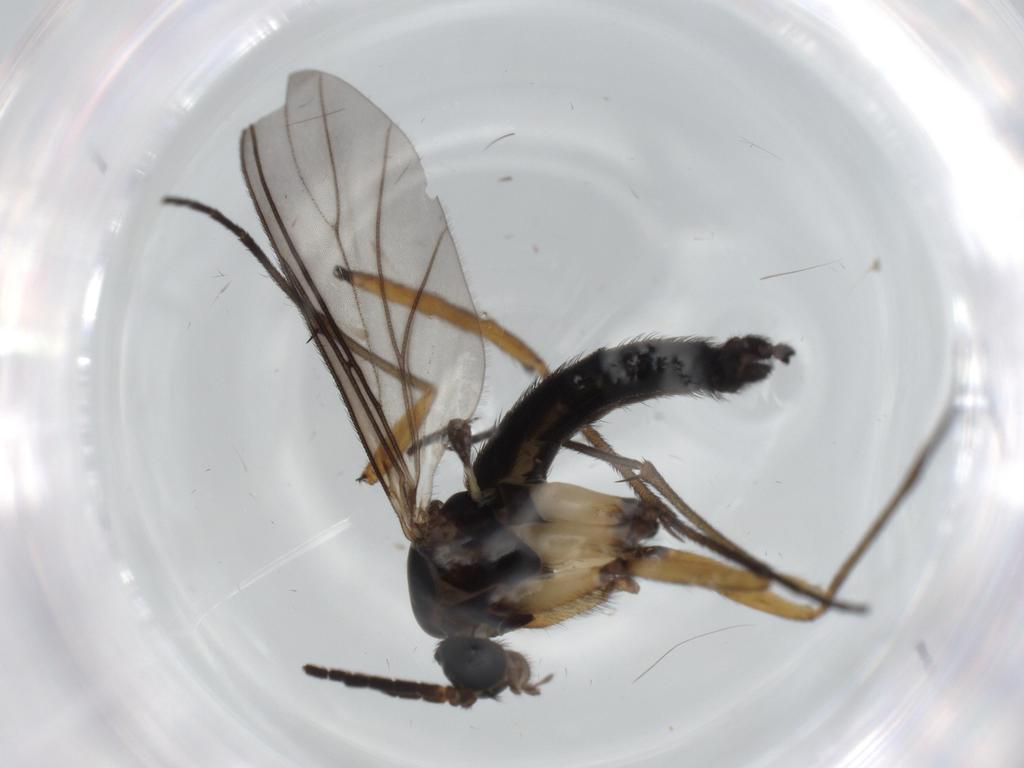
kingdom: Animalia
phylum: Arthropoda
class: Insecta
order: Diptera
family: Sciaridae
